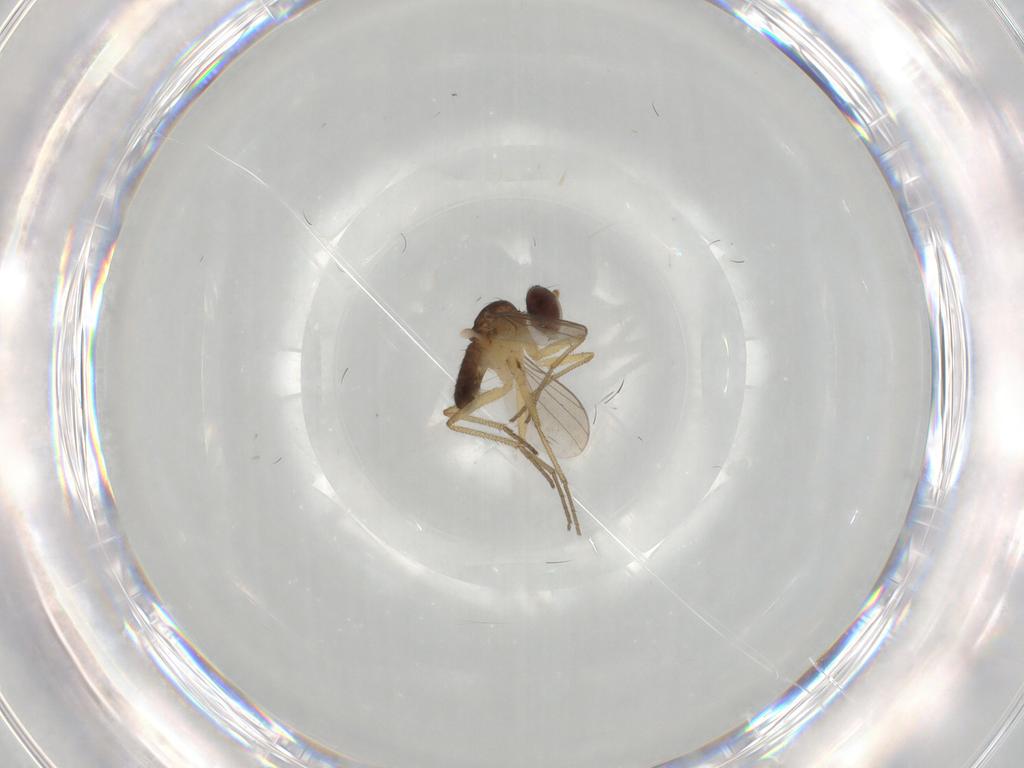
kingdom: Animalia
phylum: Arthropoda
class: Insecta
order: Diptera
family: Dolichopodidae
